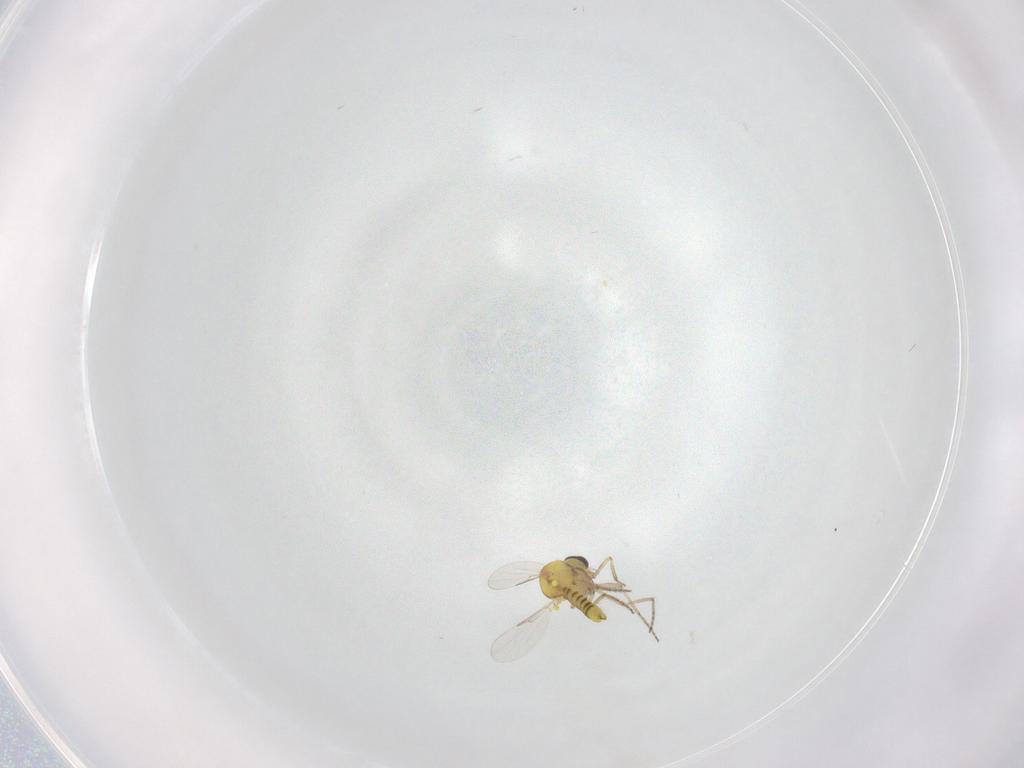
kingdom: Animalia
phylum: Arthropoda
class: Insecta
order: Diptera
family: Ceratopogonidae
